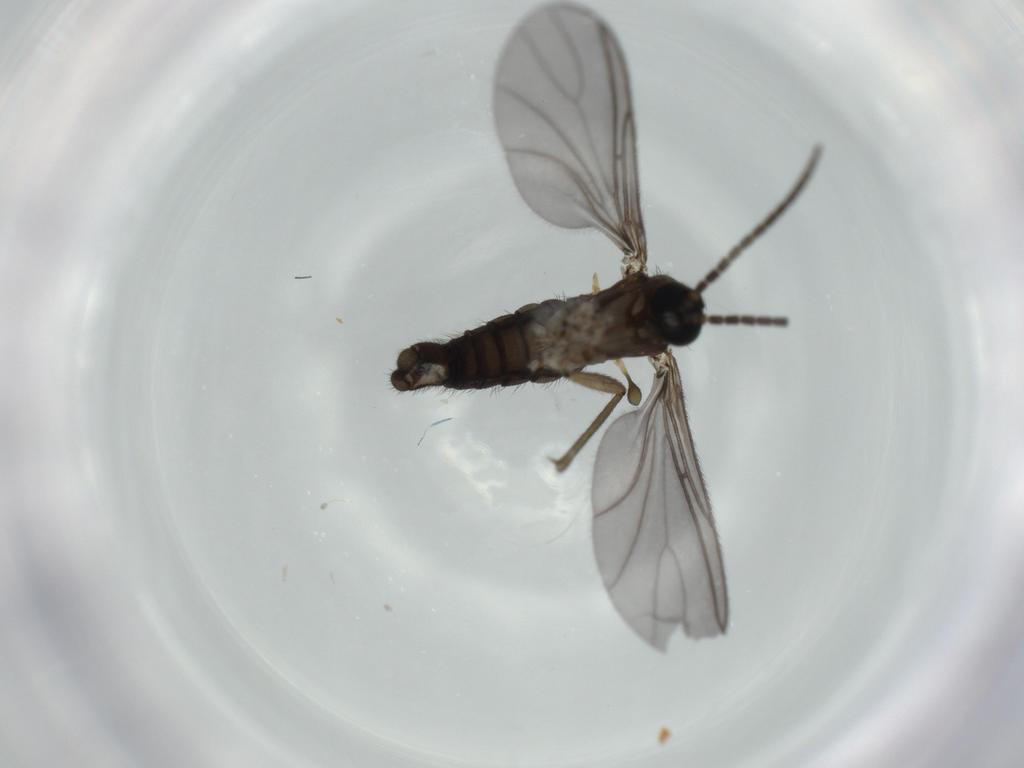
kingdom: Animalia
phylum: Arthropoda
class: Insecta
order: Diptera
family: Sciaridae
